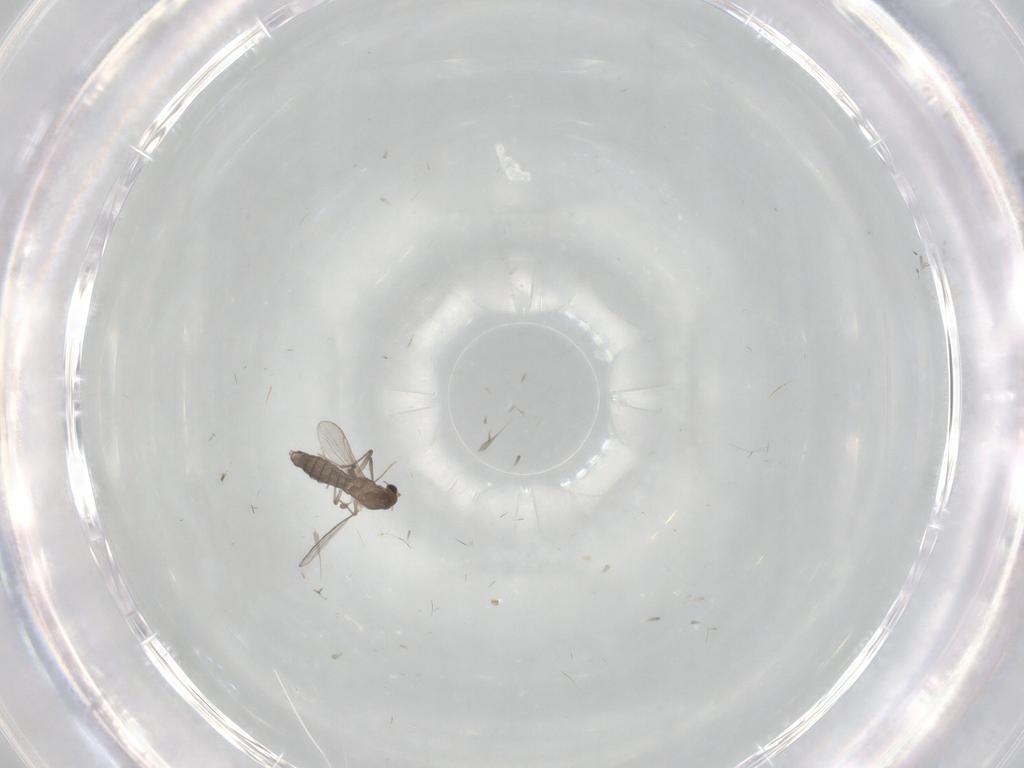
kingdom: Animalia
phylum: Arthropoda
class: Insecta
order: Diptera
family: Chironomidae
